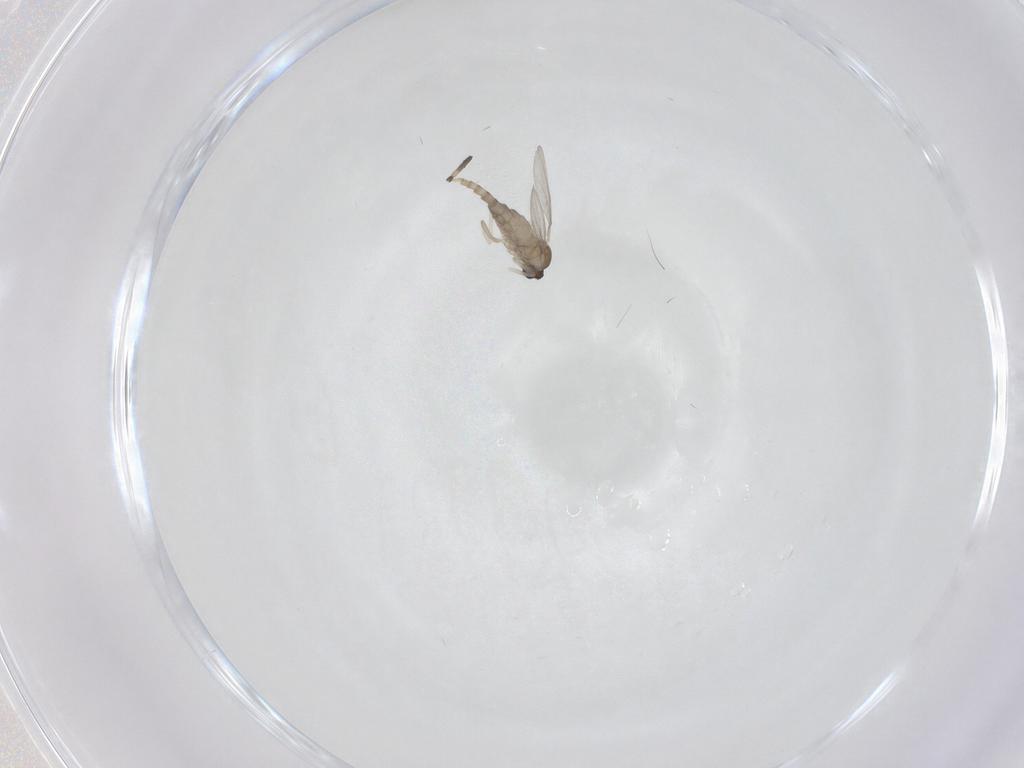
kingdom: Animalia
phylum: Arthropoda
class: Insecta
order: Diptera
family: Cecidomyiidae
